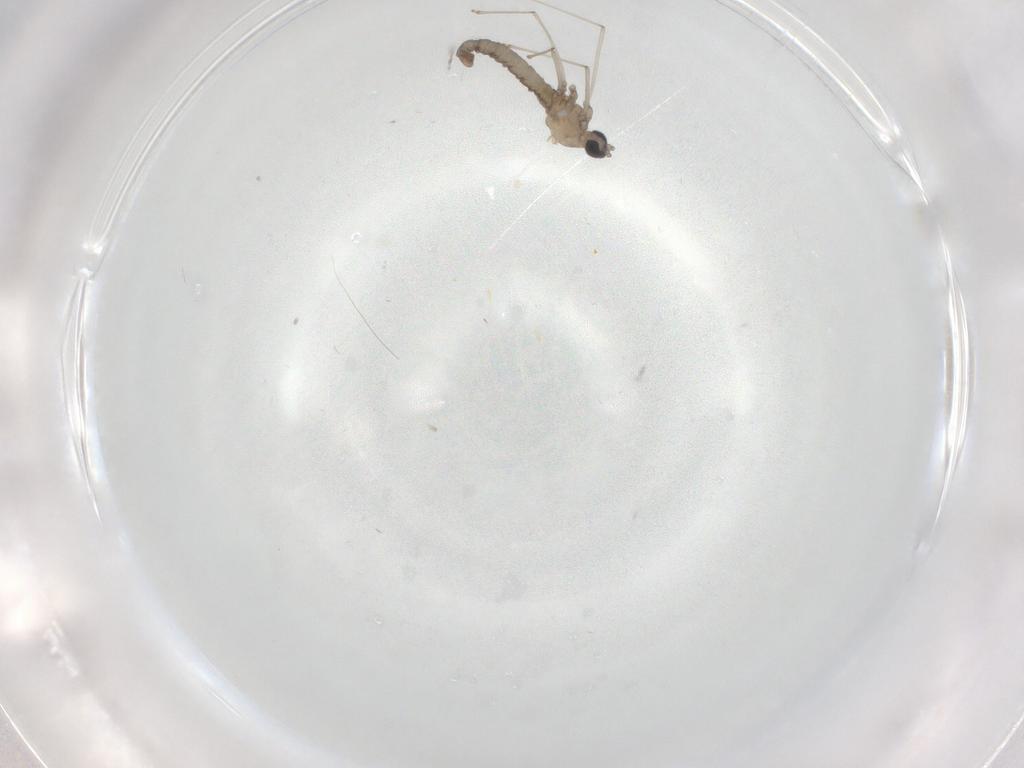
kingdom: Animalia
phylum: Arthropoda
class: Insecta
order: Diptera
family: Limoniidae
